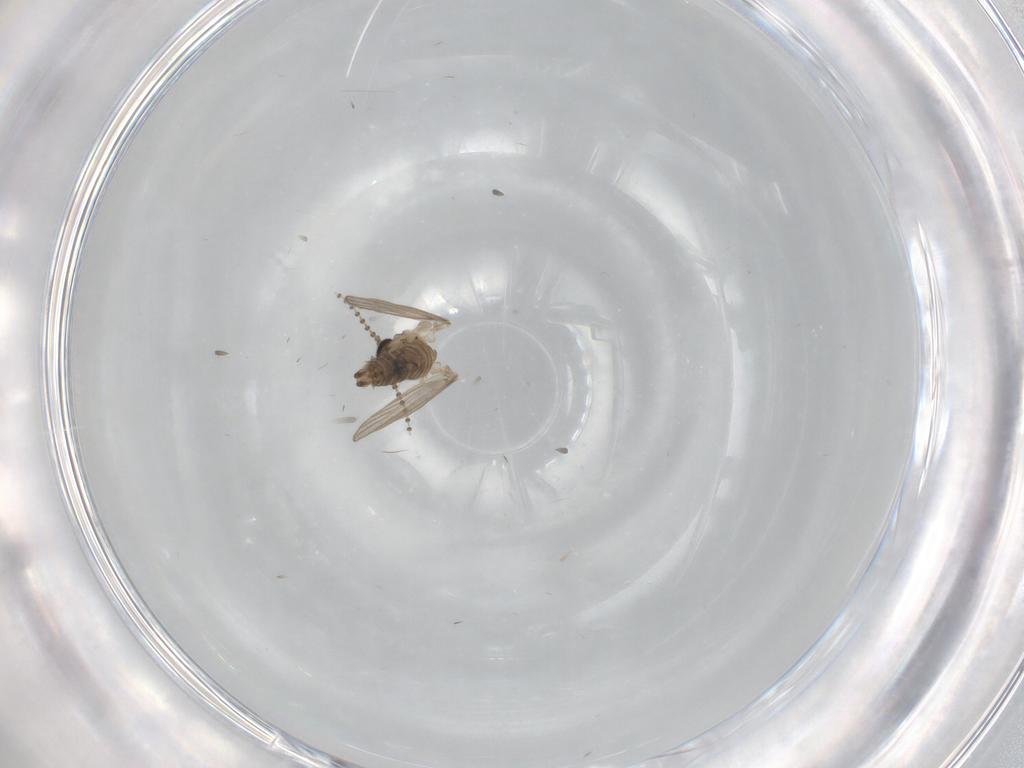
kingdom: Animalia
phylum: Arthropoda
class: Insecta
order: Diptera
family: Psychodidae
